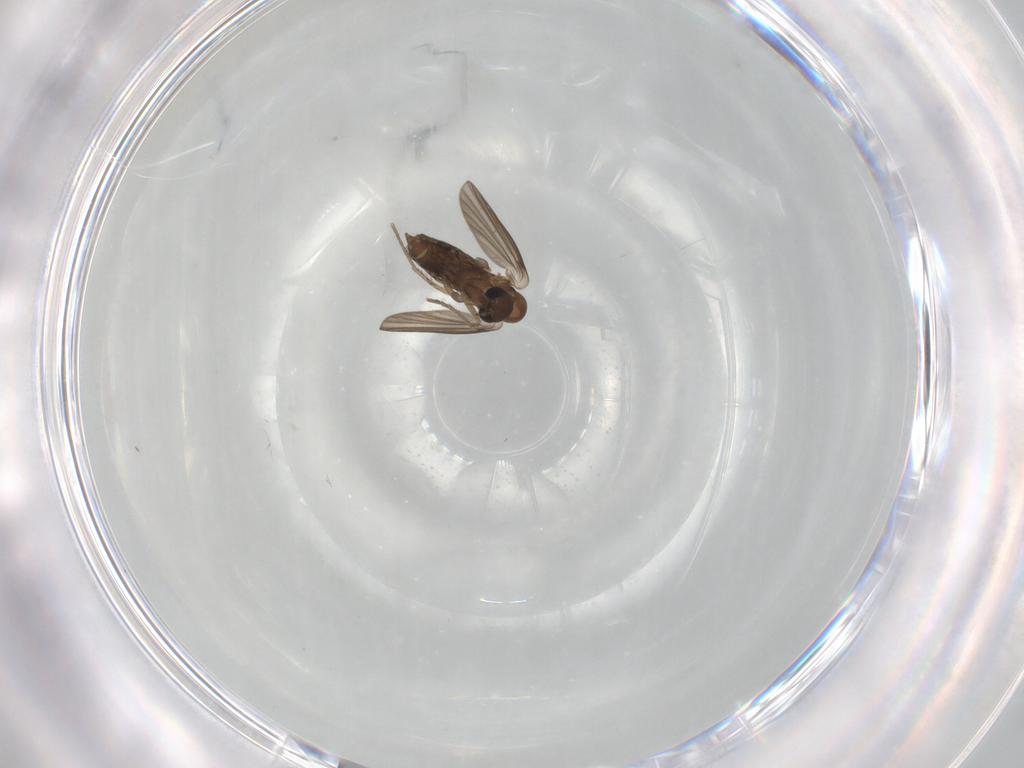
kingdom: Animalia
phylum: Arthropoda
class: Insecta
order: Diptera
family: Cecidomyiidae
